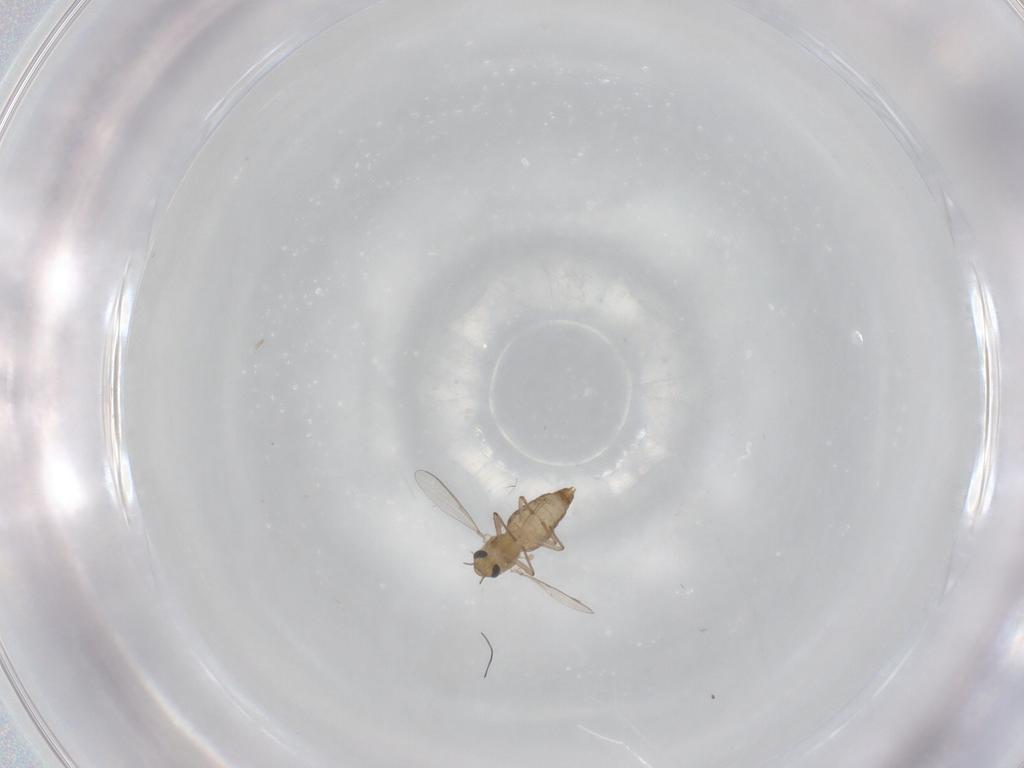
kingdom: Animalia
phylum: Arthropoda
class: Insecta
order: Diptera
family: Chironomidae
